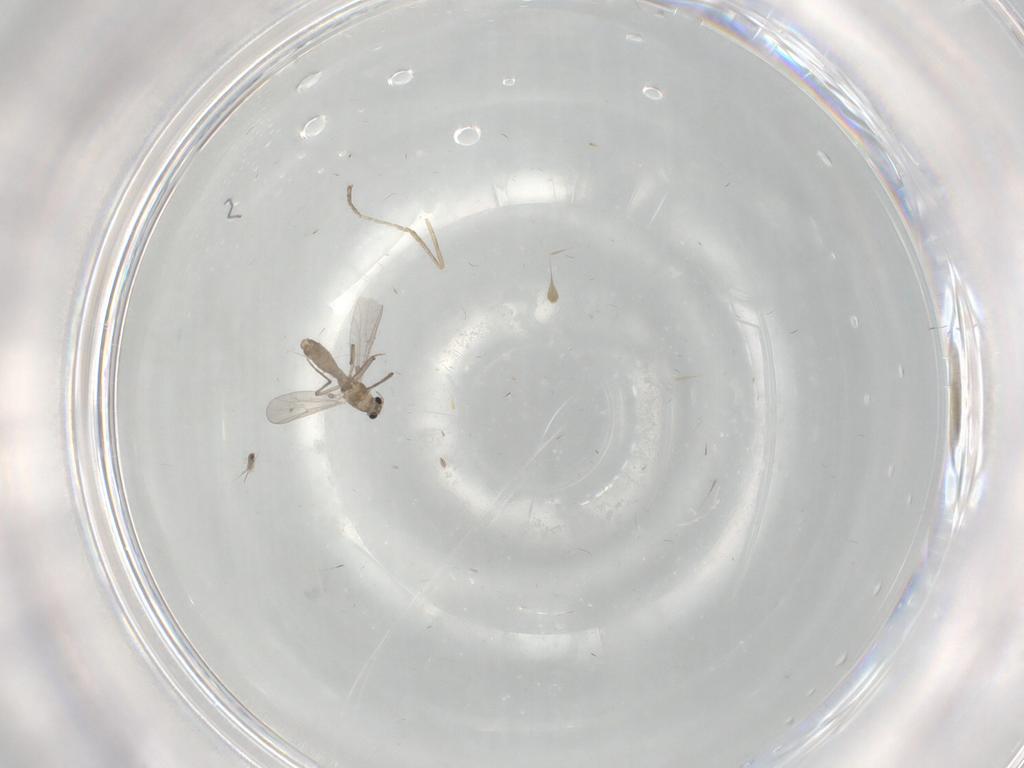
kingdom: Animalia
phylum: Arthropoda
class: Insecta
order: Diptera
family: Chironomidae
